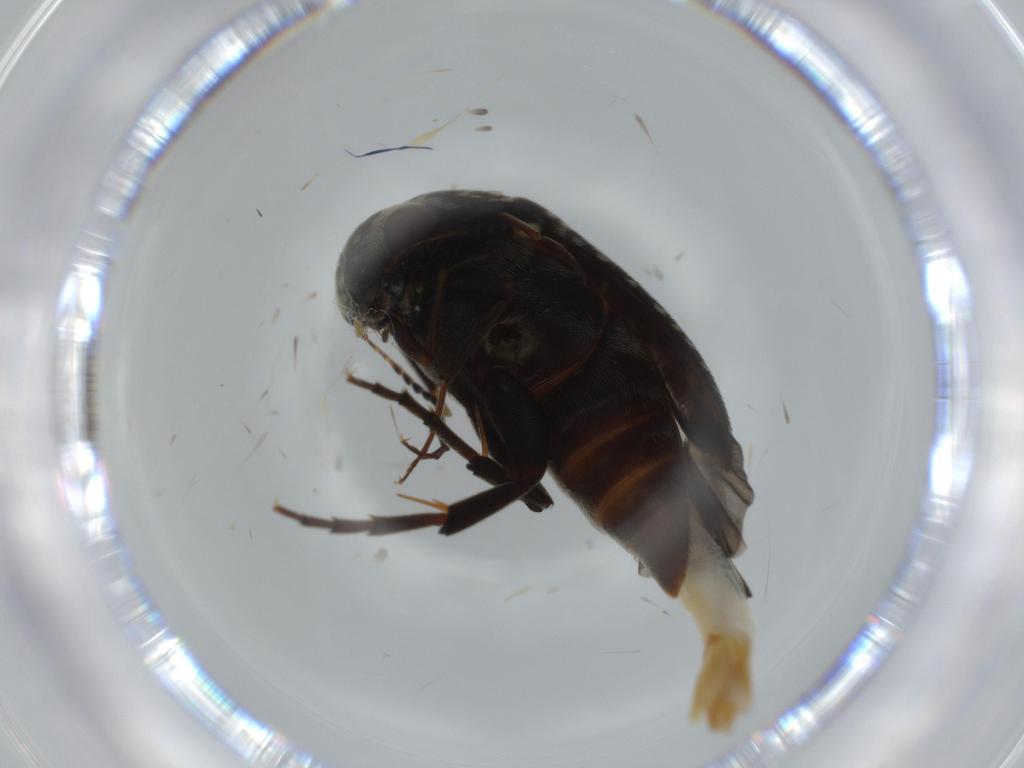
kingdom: Animalia
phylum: Arthropoda
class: Insecta
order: Coleoptera
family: Mordellidae
